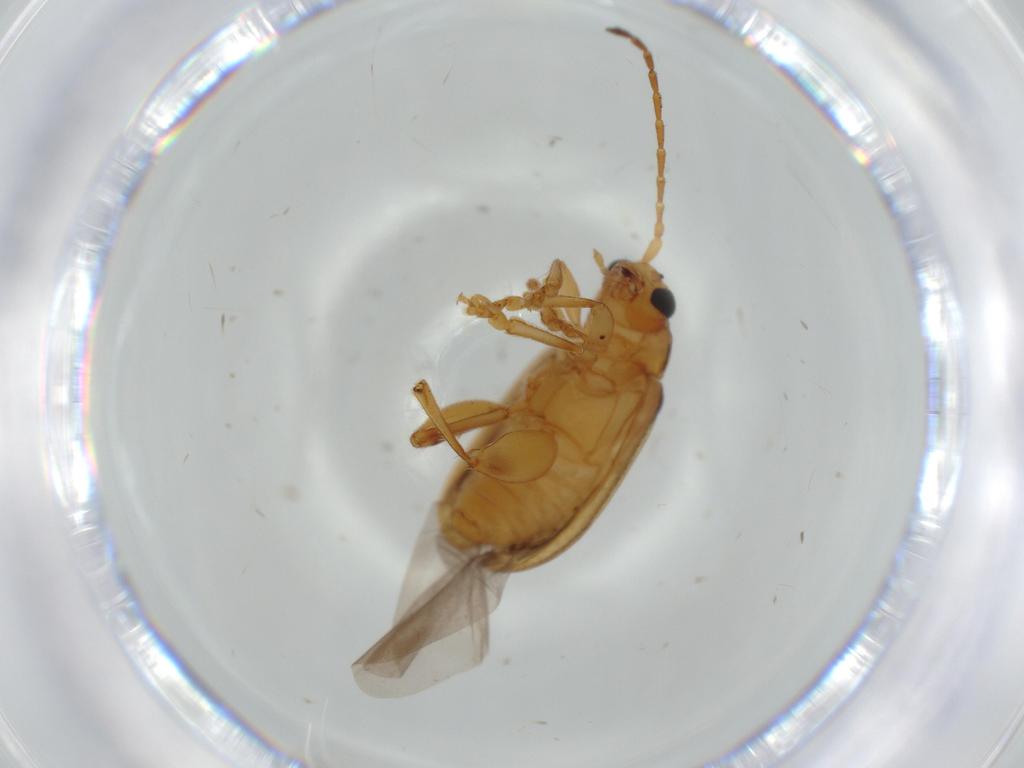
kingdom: Animalia
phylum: Arthropoda
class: Insecta
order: Coleoptera
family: Chrysomelidae
